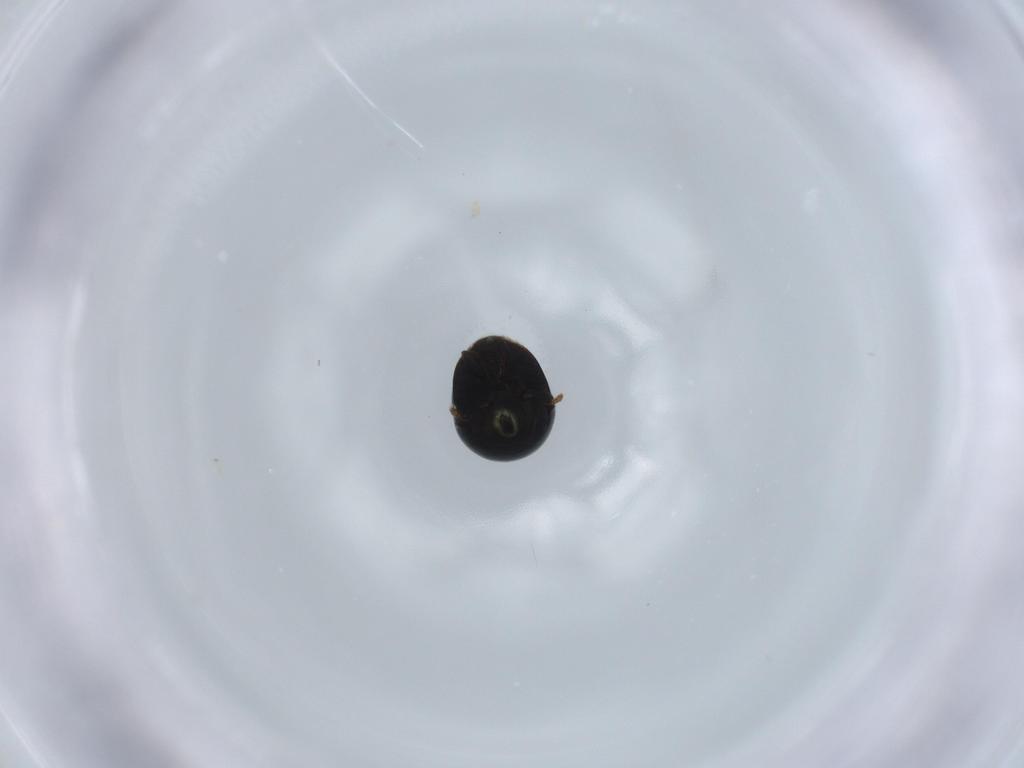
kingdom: Animalia
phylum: Arthropoda
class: Insecta
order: Coleoptera
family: Cybocephalidae
